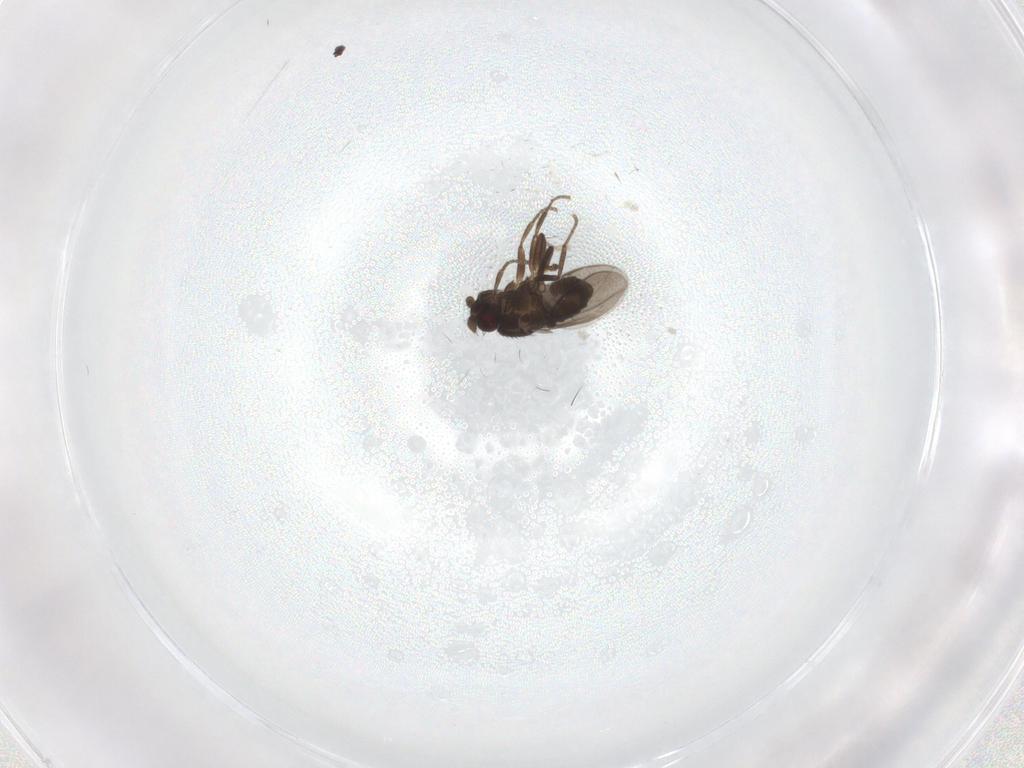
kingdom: Animalia
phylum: Arthropoda
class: Insecta
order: Diptera
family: Sphaeroceridae
